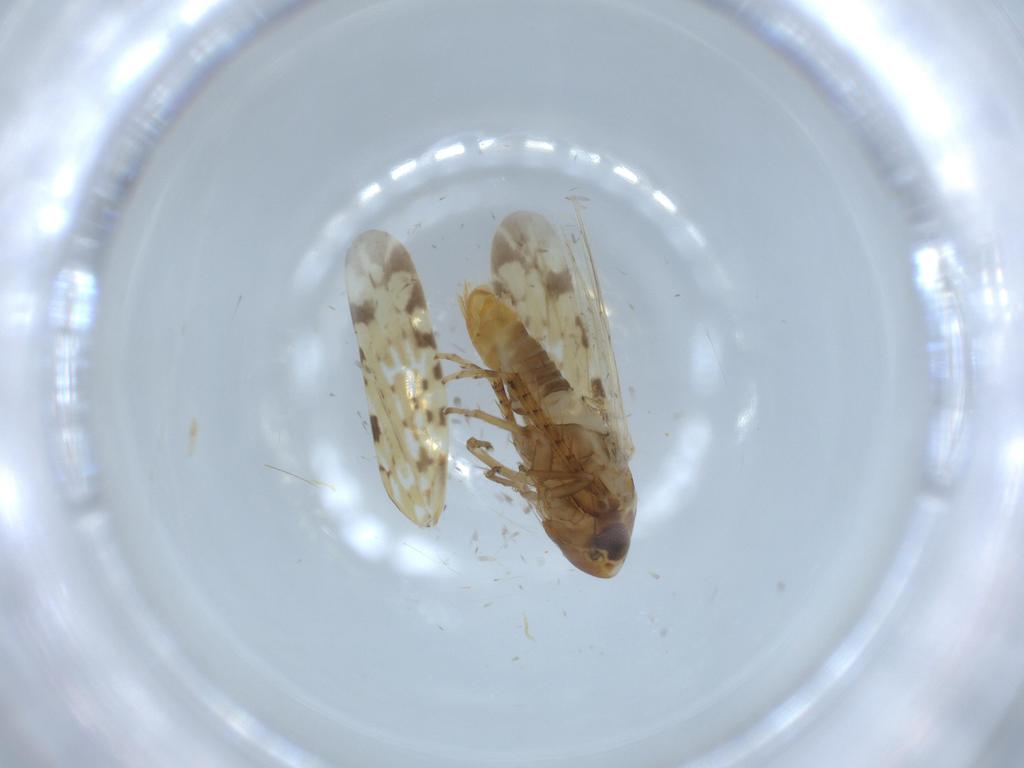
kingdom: Animalia
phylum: Arthropoda
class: Insecta
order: Hemiptera
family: Cicadellidae
